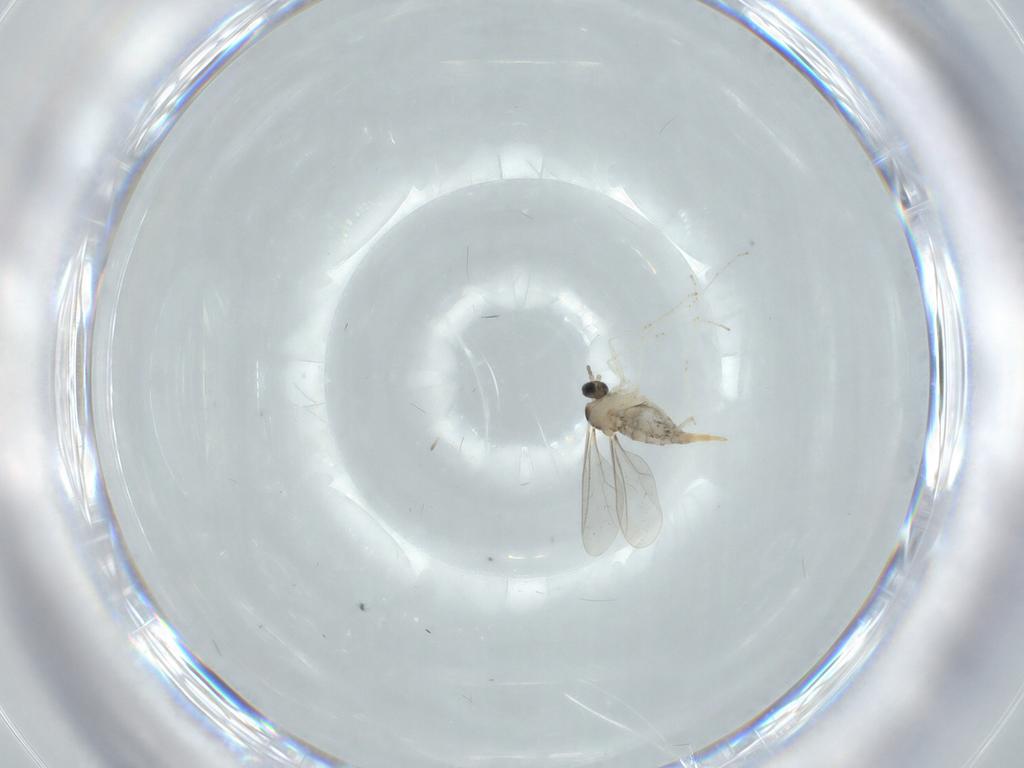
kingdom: Animalia
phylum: Arthropoda
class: Insecta
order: Diptera
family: Cecidomyiidae
